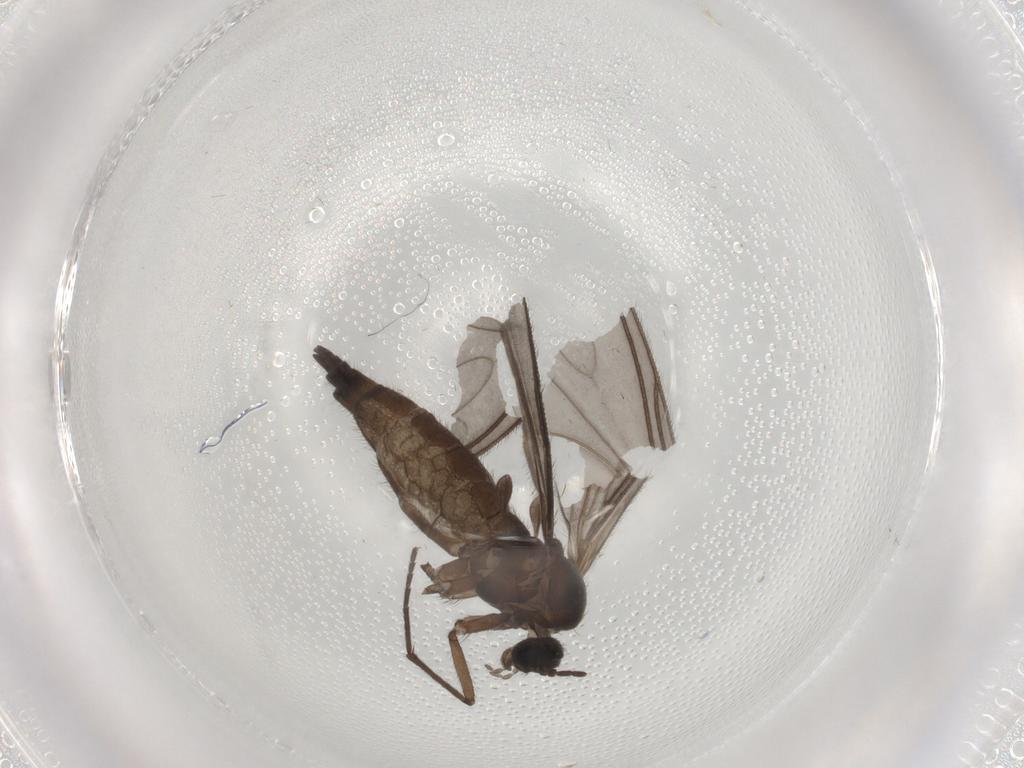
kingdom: Animalia
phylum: Arthropoda
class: Insecta
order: Diptera
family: Sciaridae
